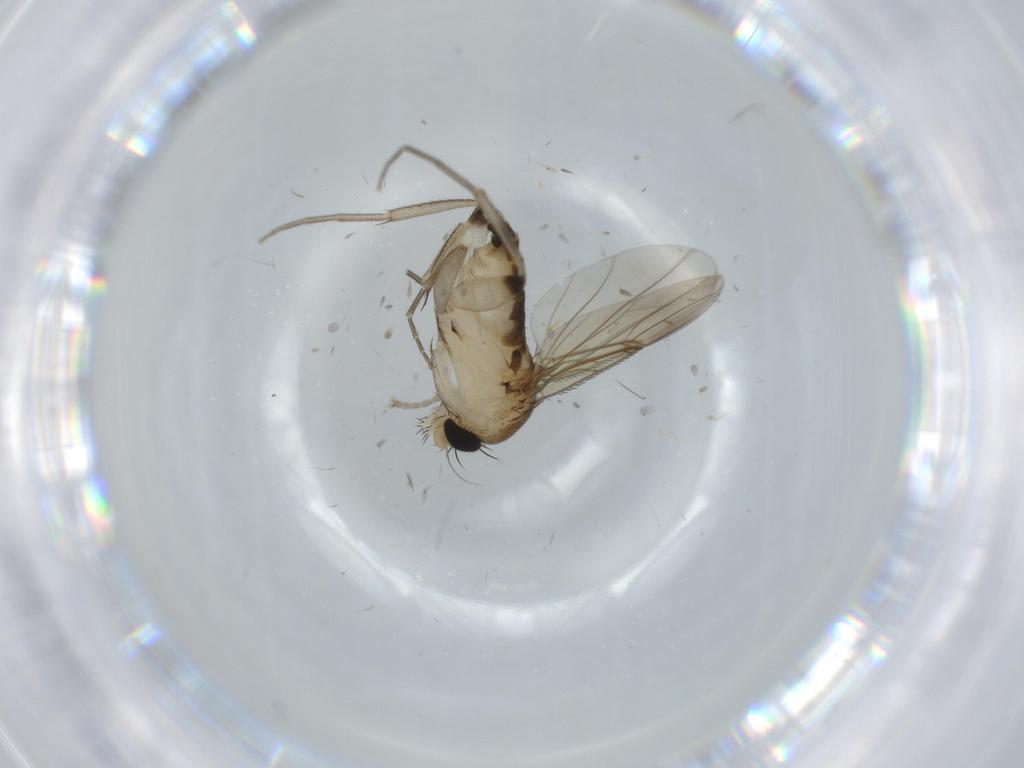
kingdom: Animalia
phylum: Arthropoda
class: Insecta
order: Diptera
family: Phoridae
